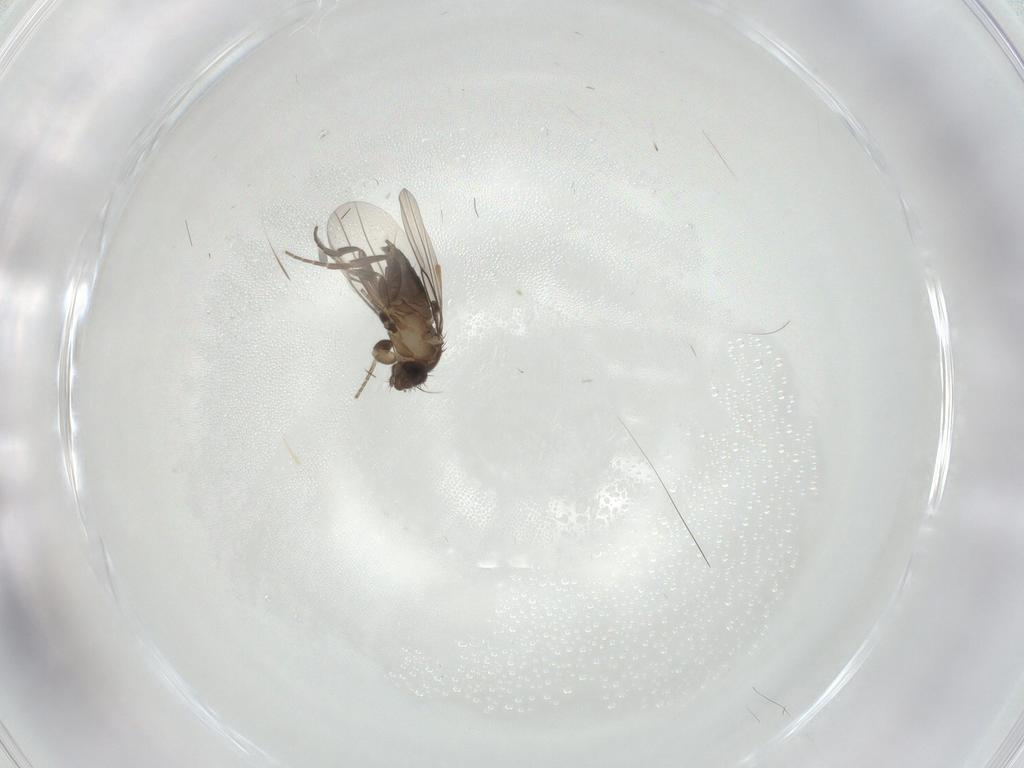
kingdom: Animalia
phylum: Arthropoda
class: Insecta
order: Diptera
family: Phoridae
